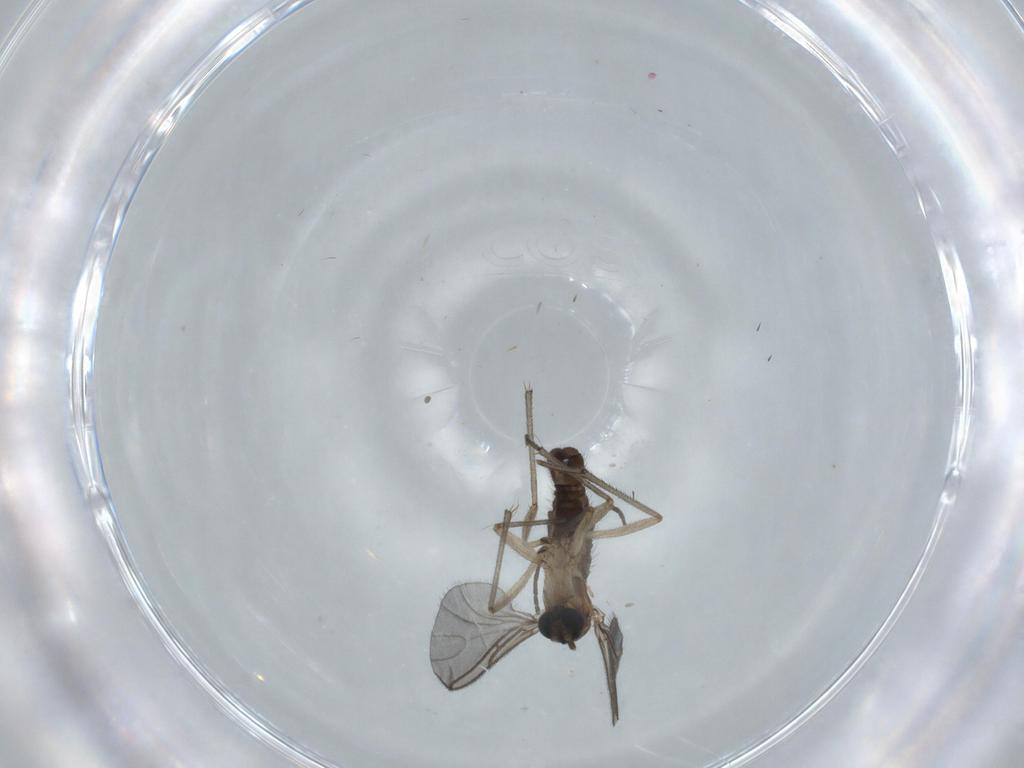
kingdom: Animalia
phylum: Arthropoda
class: Insecta
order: Diptera
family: Sciaridae
